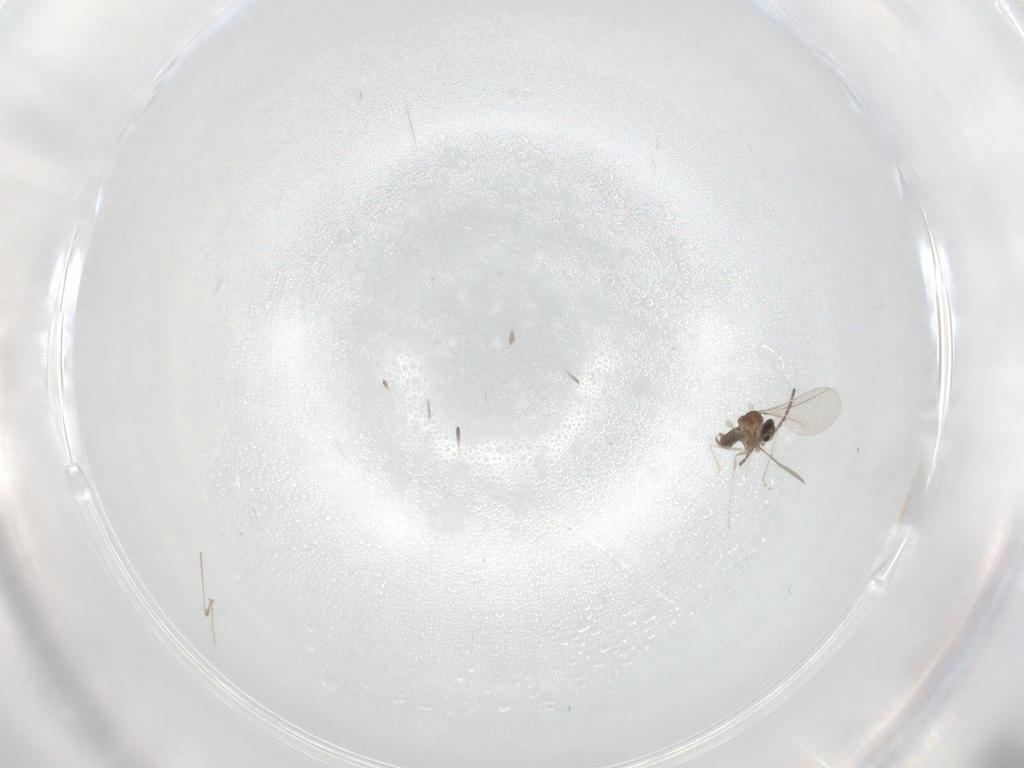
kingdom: Animalia
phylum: Arthropoda
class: Insecta
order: Diptera
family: Cecidomyiidae
